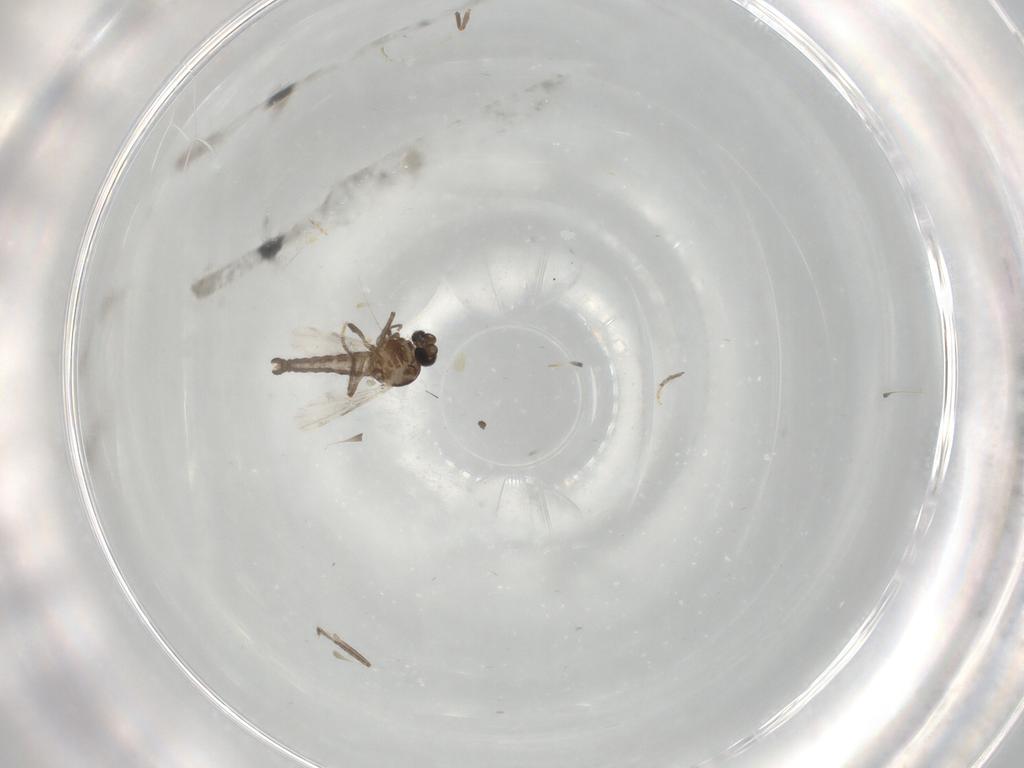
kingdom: Animalia
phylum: Arthropoda
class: Insecta
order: Diptera
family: Ceratopogonidae
